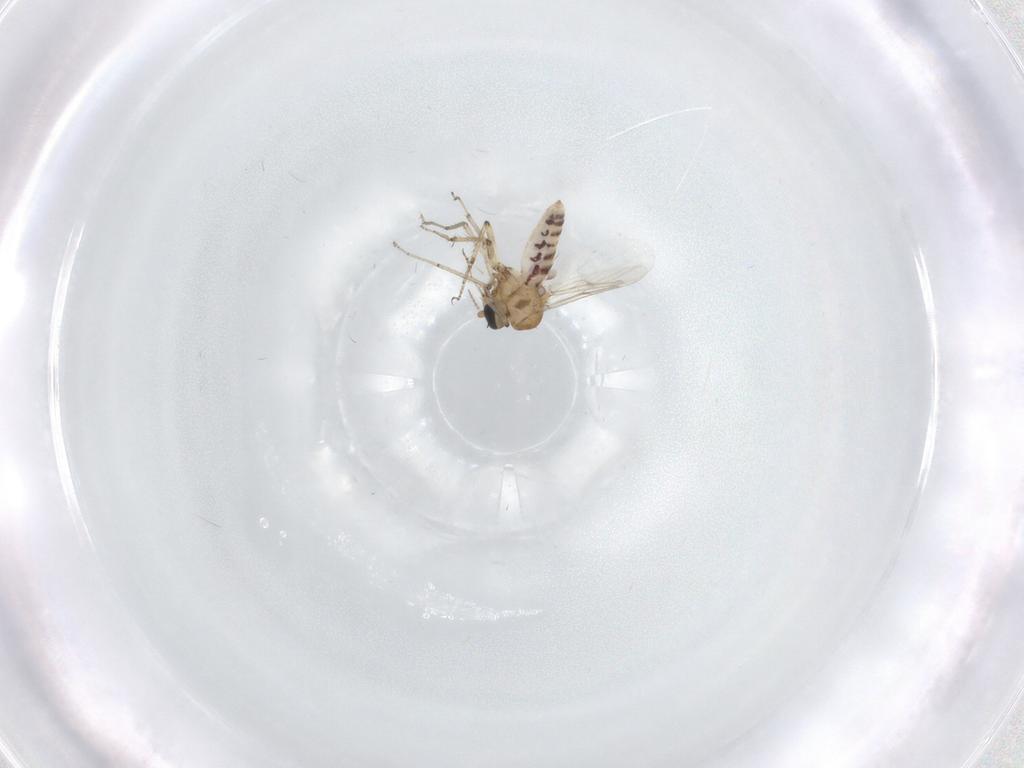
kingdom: Animalia
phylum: Arthropoda
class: Insecta
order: Diptera
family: Ceratopogonidae
